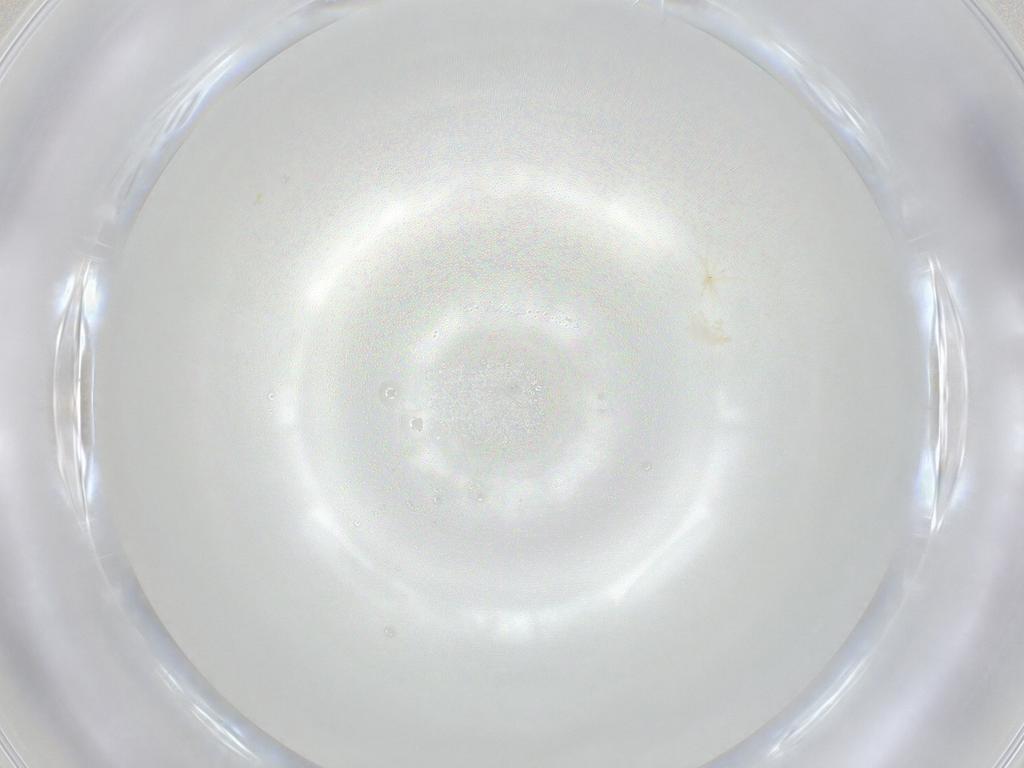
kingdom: Animalia
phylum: Arthropoda
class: Arachnida
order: Trombidiformes
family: Erythraeidae
